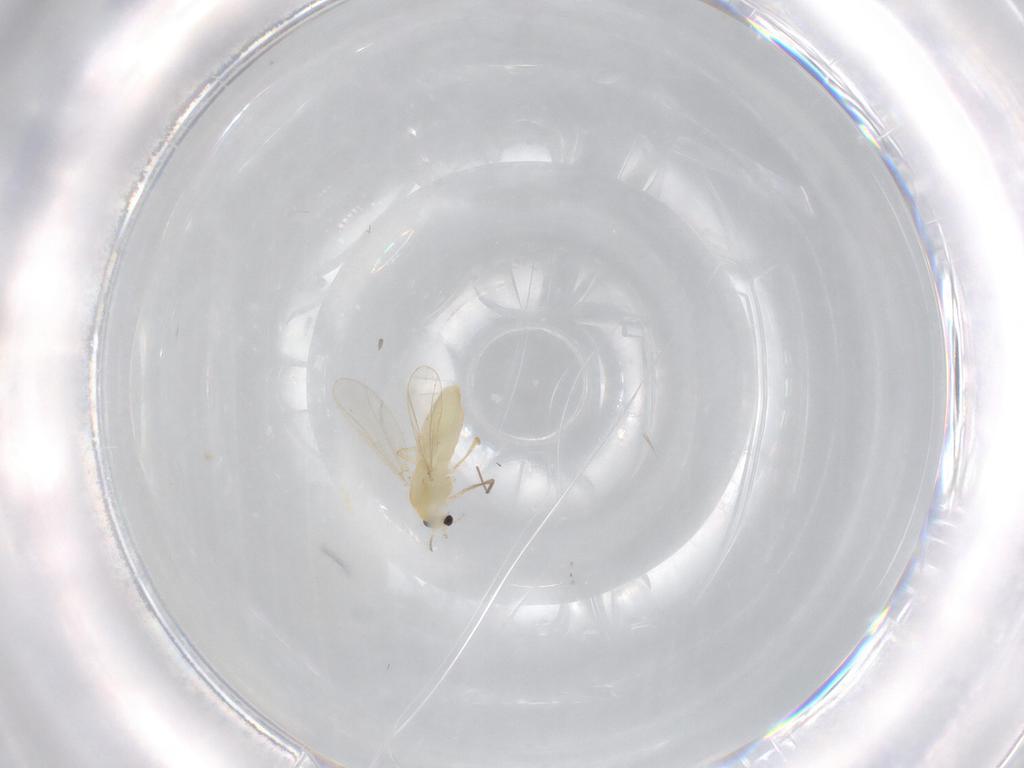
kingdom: Animalia
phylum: Arthropoda
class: Insecta
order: Diptera
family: Chironomidae
